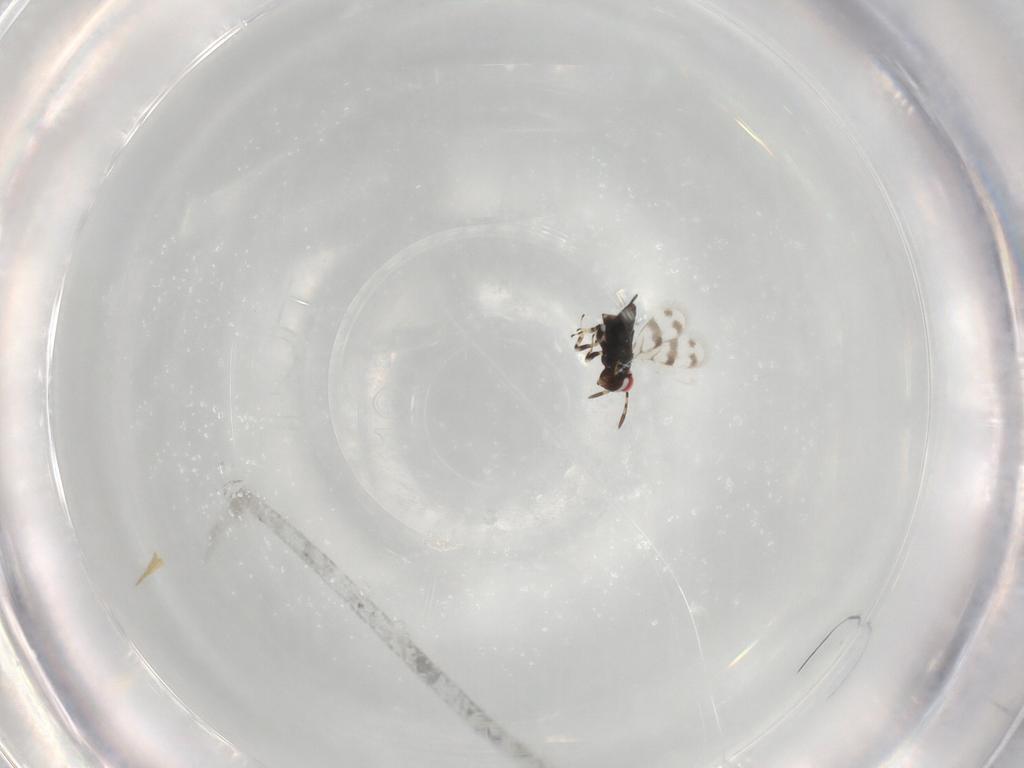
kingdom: Animalia
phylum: Arthropoda
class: Insecta
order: Hymenoptera
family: Azotidae
